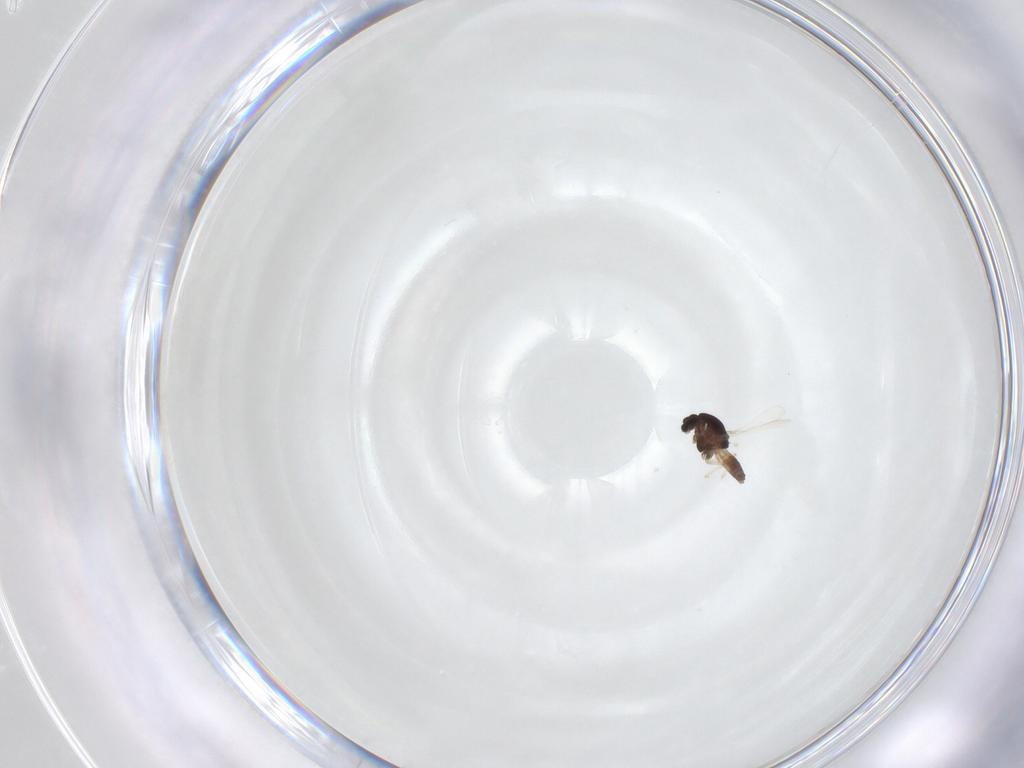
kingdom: Animalia
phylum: Arthropoda
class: Insecta
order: Diptera
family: Chironomidae
